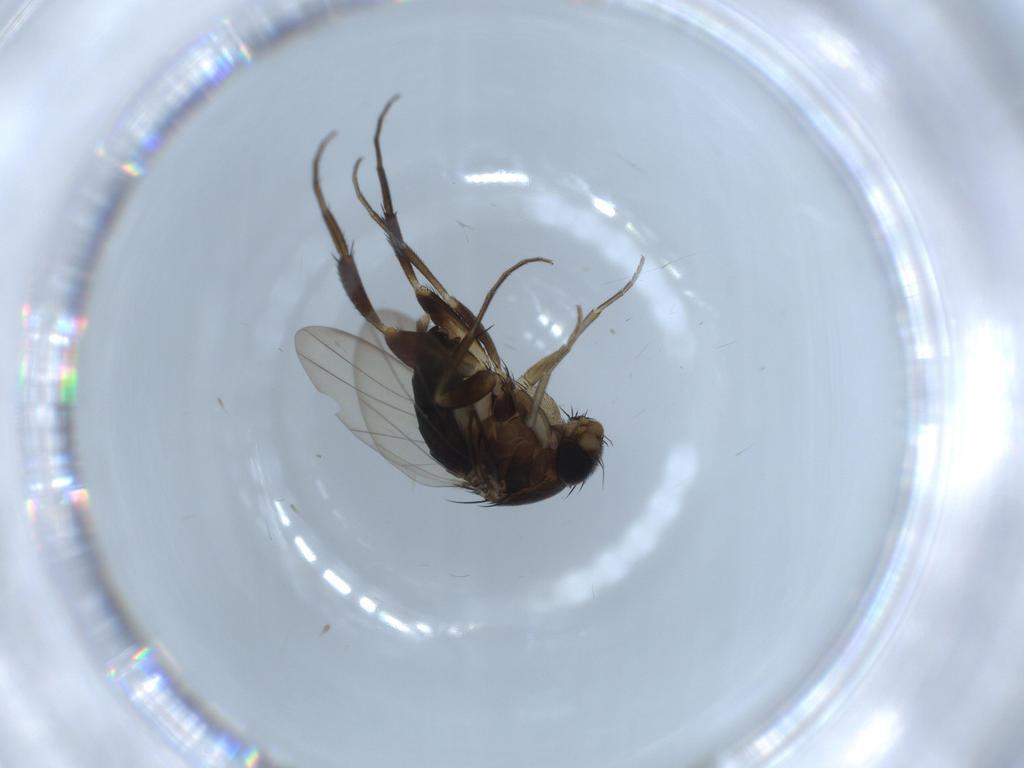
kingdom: Animalia
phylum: Arthropoda
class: Insecta
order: Diptera
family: Phoridae
